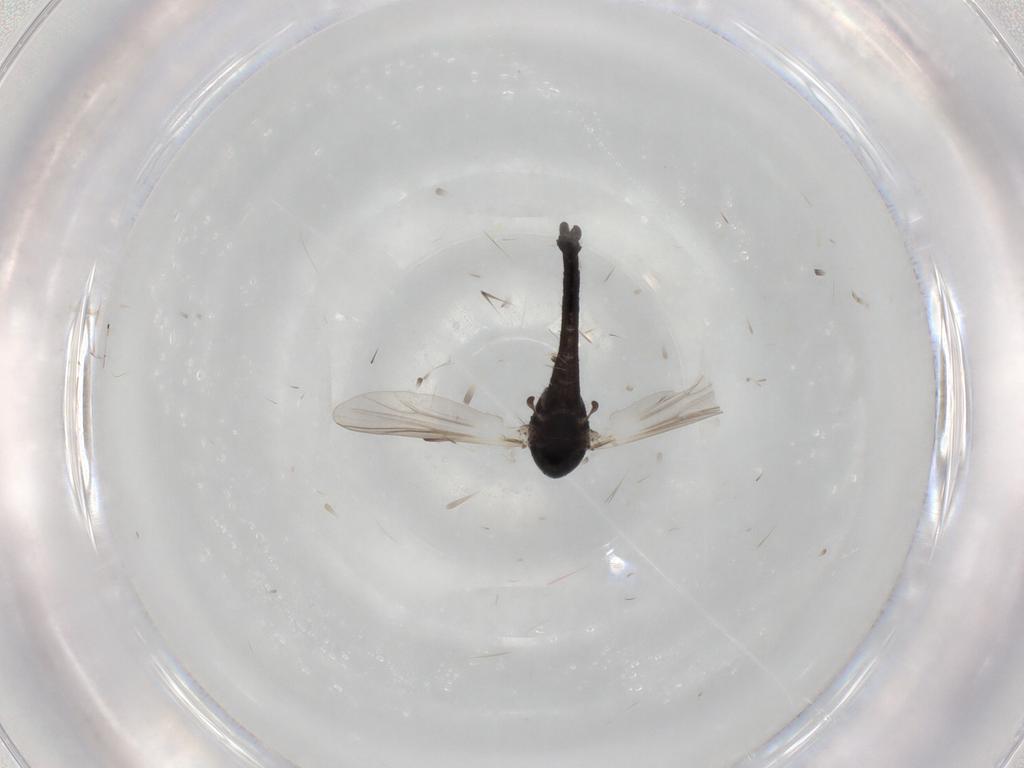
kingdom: Animalia
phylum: Arthropoda
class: Insecta
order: Diptera
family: Chironomidae
